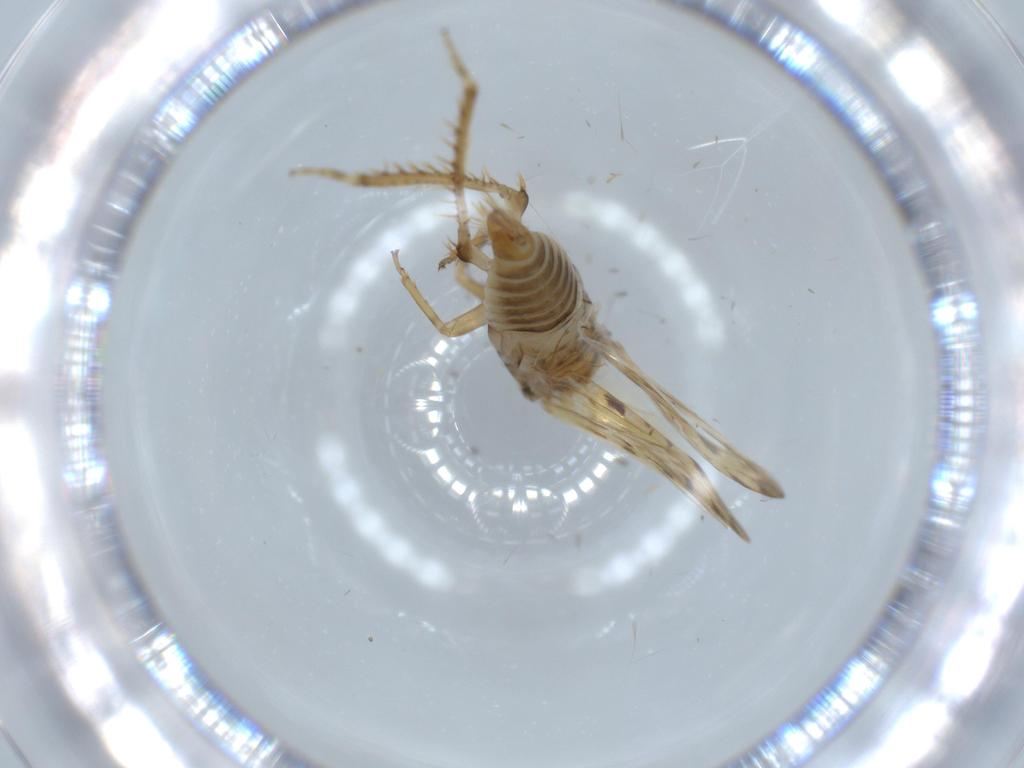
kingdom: Animalia
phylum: Arthropoda
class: Insecta
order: Hemiptera
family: Cicadellidae
